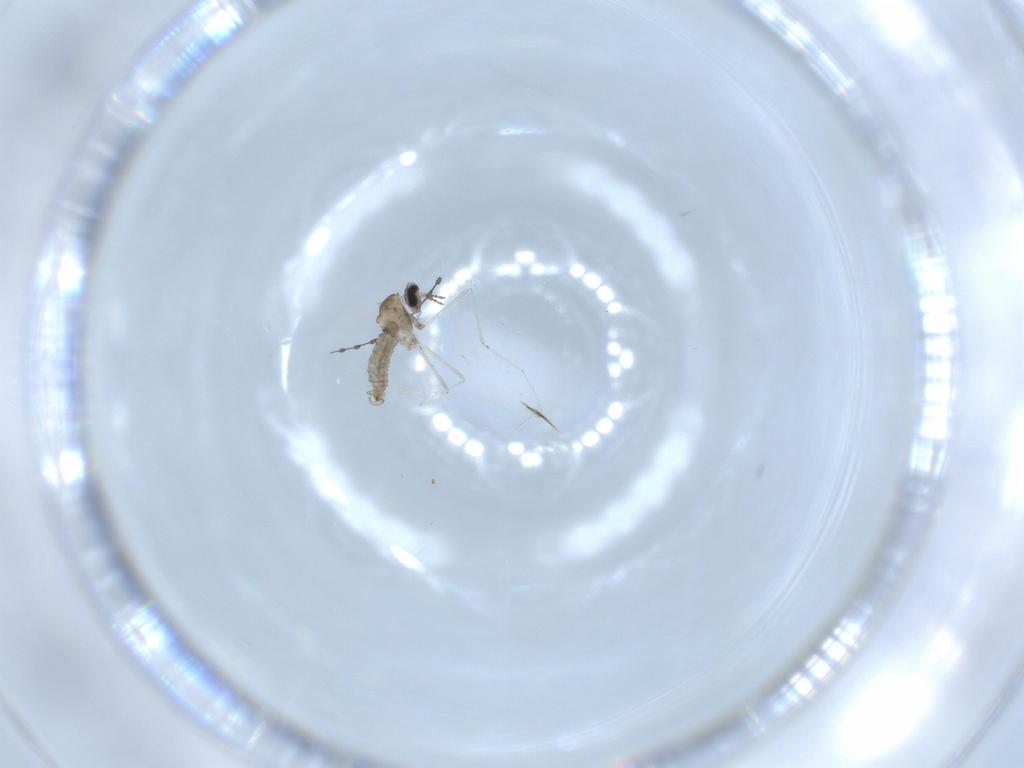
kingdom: Animalia
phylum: Arthropoda
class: Insecta
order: Diptera
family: Cecidomyiidae
